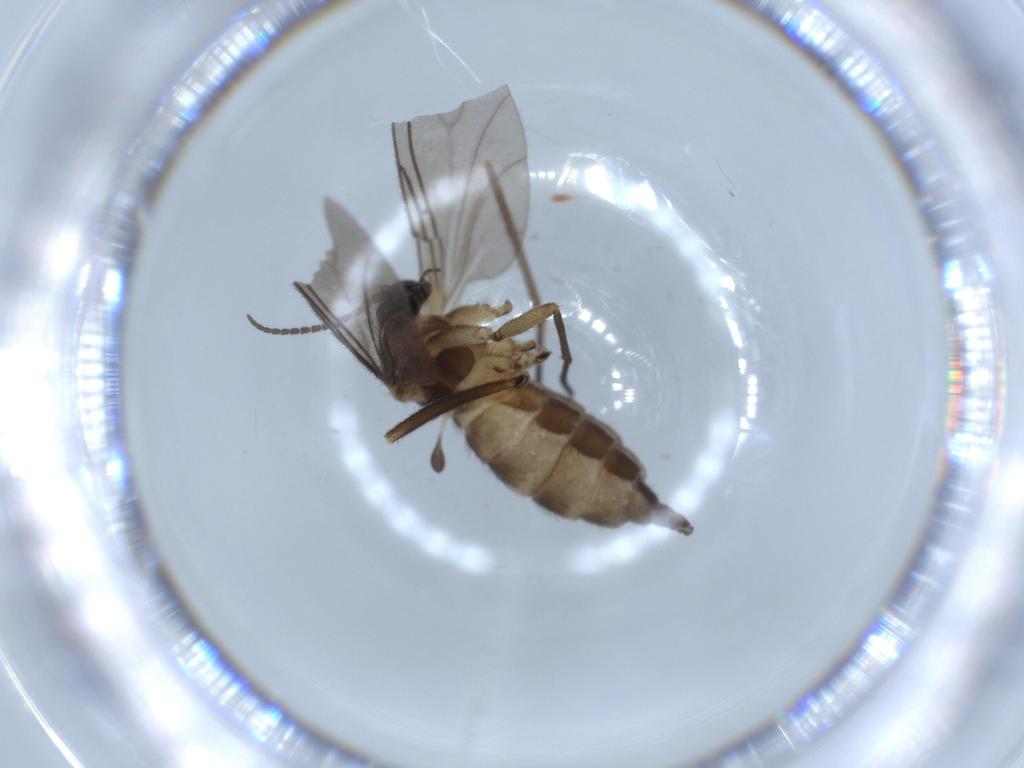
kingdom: Animalia
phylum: Arthropoda
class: Insecta
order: Diptera
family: Sciaridae
